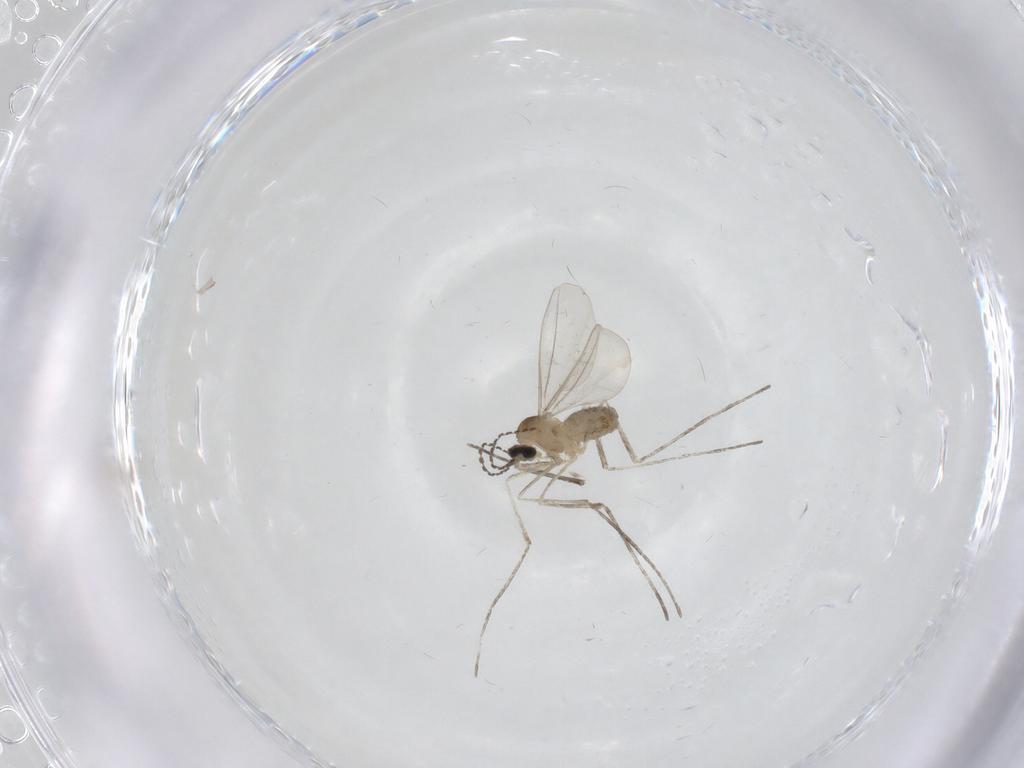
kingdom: Animalia
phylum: Arthropoda
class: Insecta
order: Diptera
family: Cecidomyiidae
